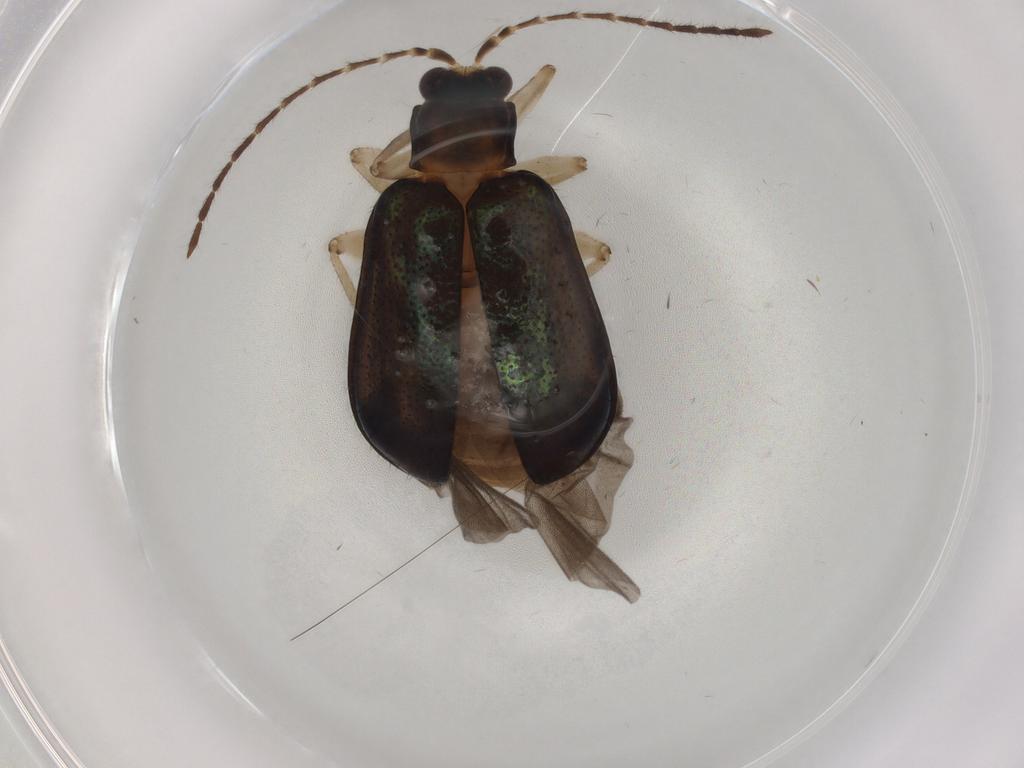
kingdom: Animalia
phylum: Arthropoda
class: Insecta
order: Coleoptera
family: Chrysomelidae
